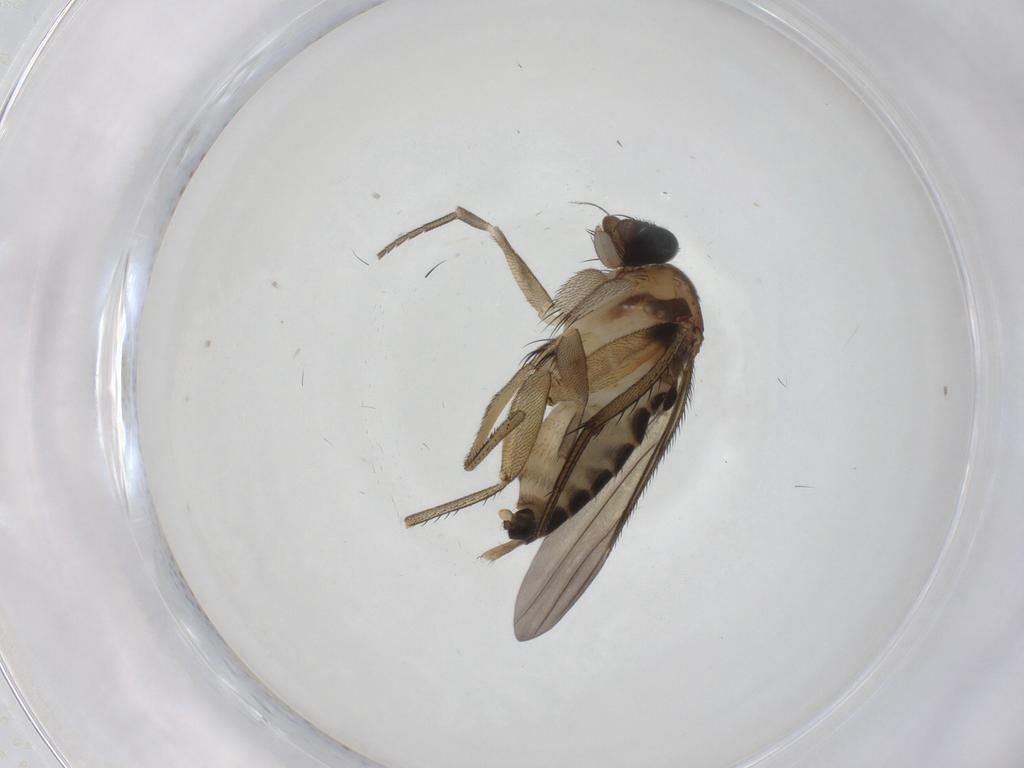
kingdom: Animalia
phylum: Arthropoda
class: Insecta
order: Diptera
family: Phoridae
